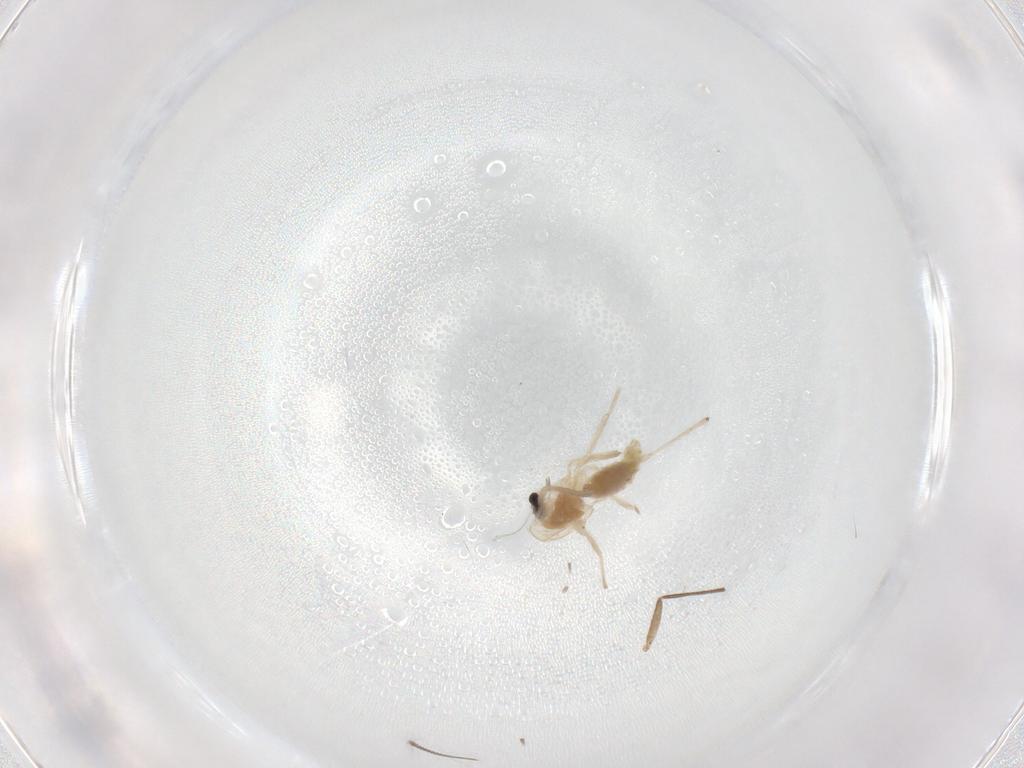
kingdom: Animalia
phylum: Arthropoda
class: Insecta
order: Diptera
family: Chironomidae
